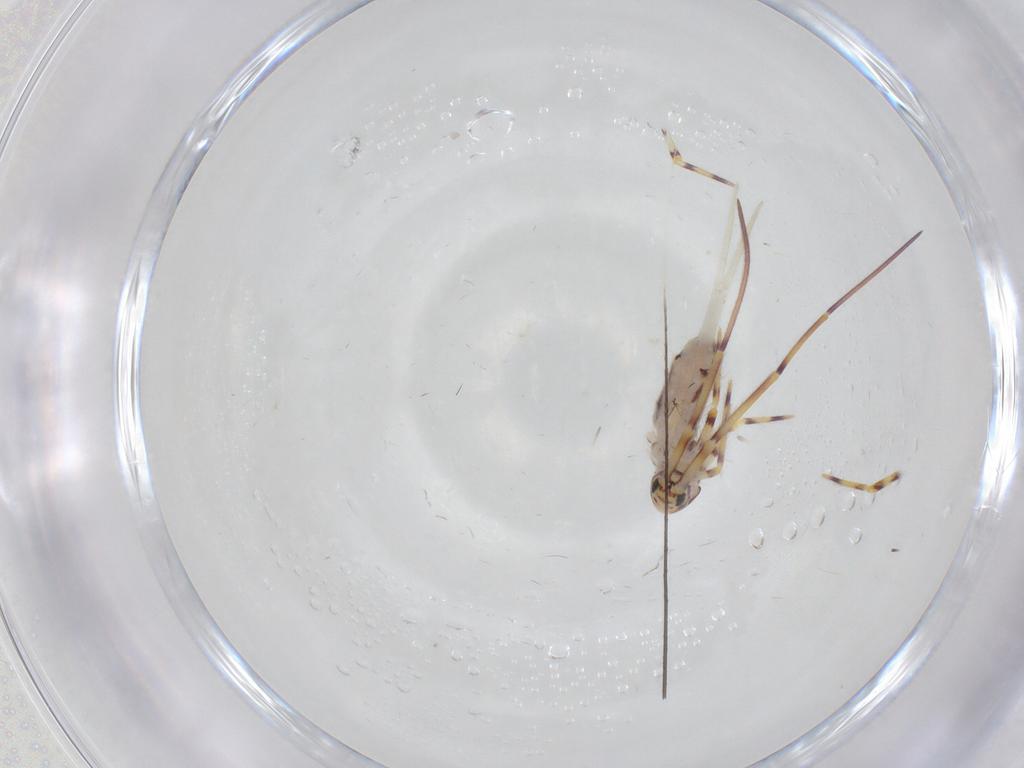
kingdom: Animalia
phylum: Arthropoda
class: Collembola
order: Entomobryomorpha
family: Entomobryidae
